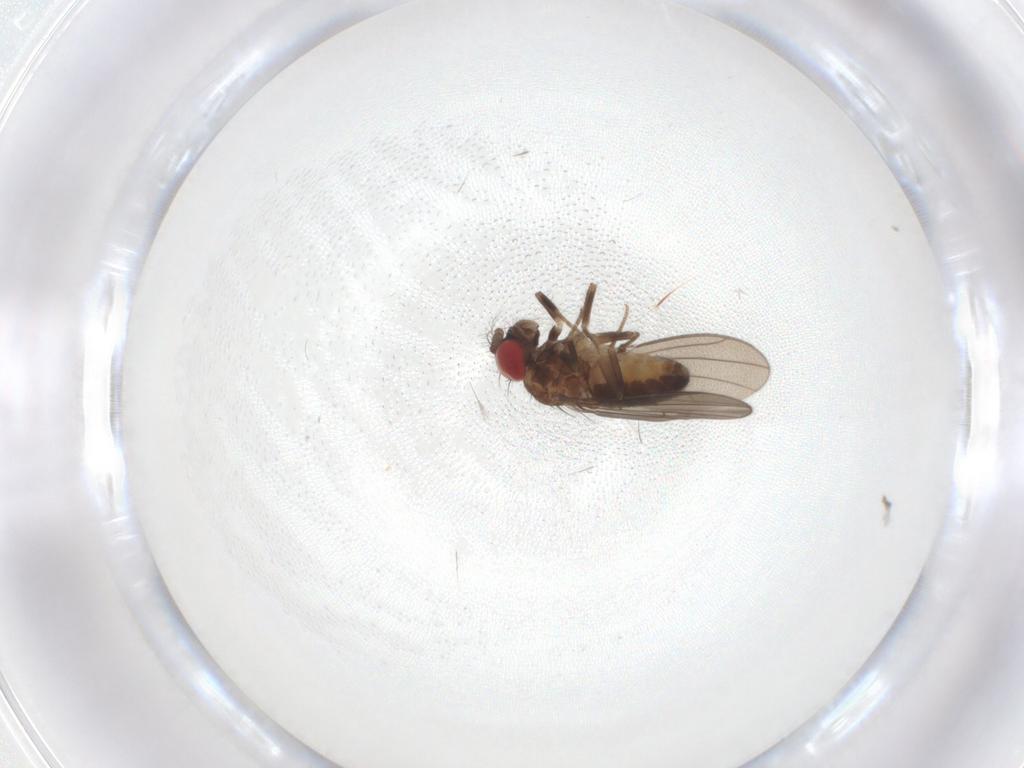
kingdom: Animalia
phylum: Arthropoda
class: Insecta
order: Diptera
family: Drosophilidae
